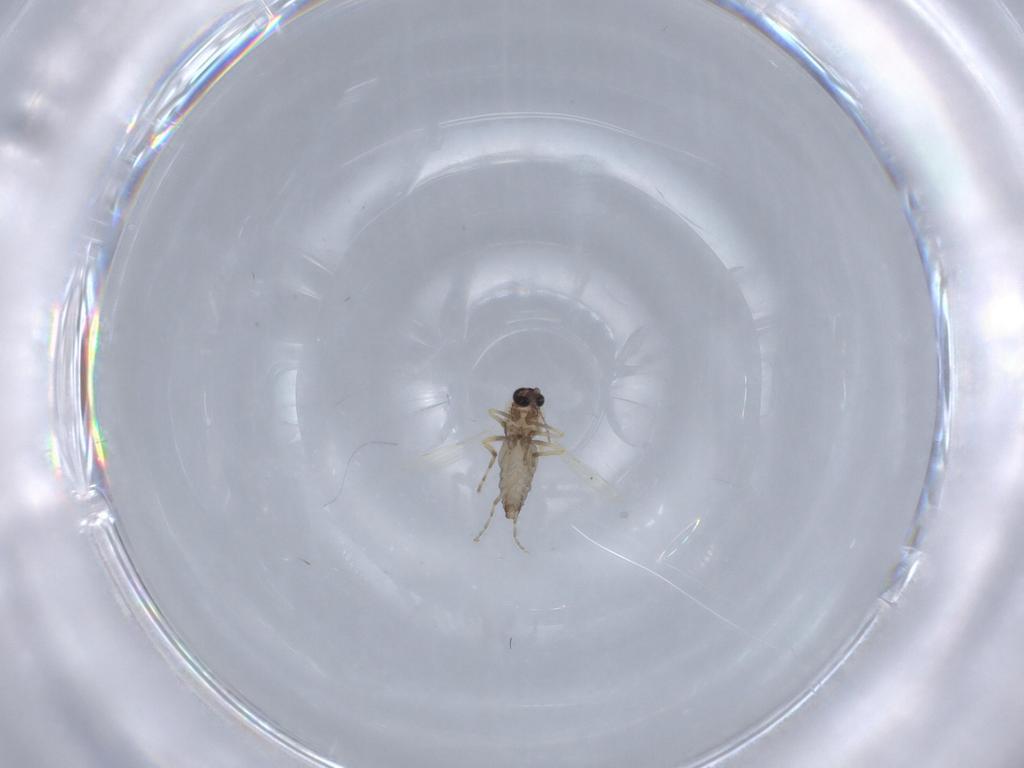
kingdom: Animalia
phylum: Arthropoda
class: Insecta
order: Diptera
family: Ceratopogonidae
